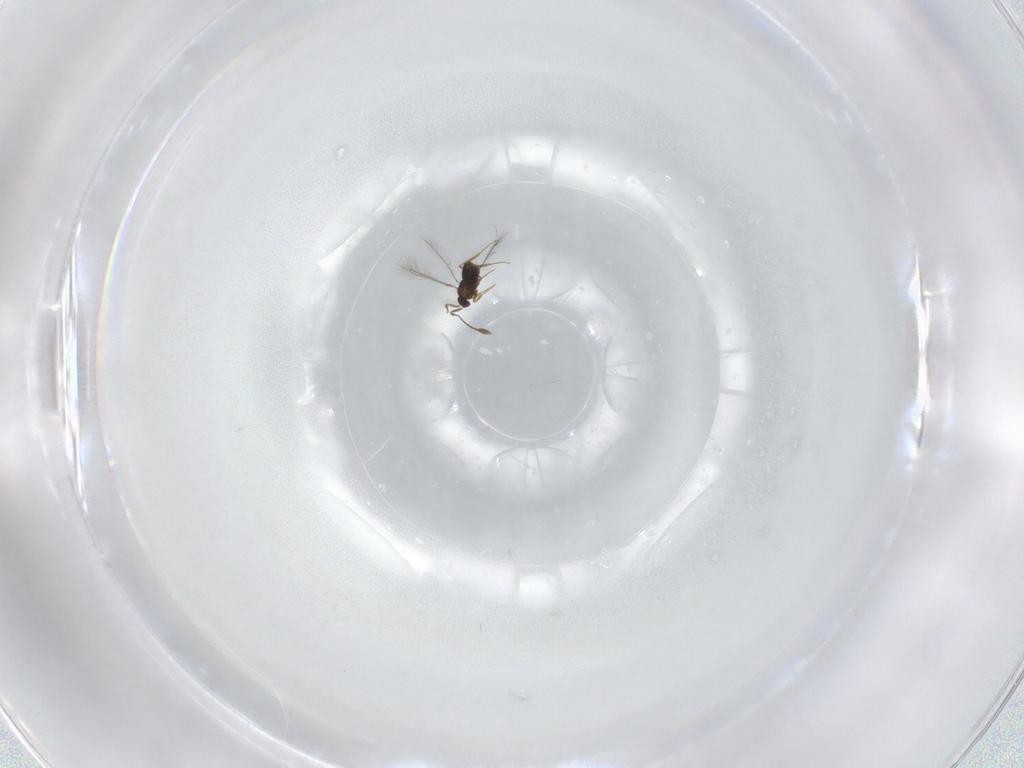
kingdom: Animalia
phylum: Arthropoda
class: Insecta
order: Hymenoptera
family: Mymaridae
